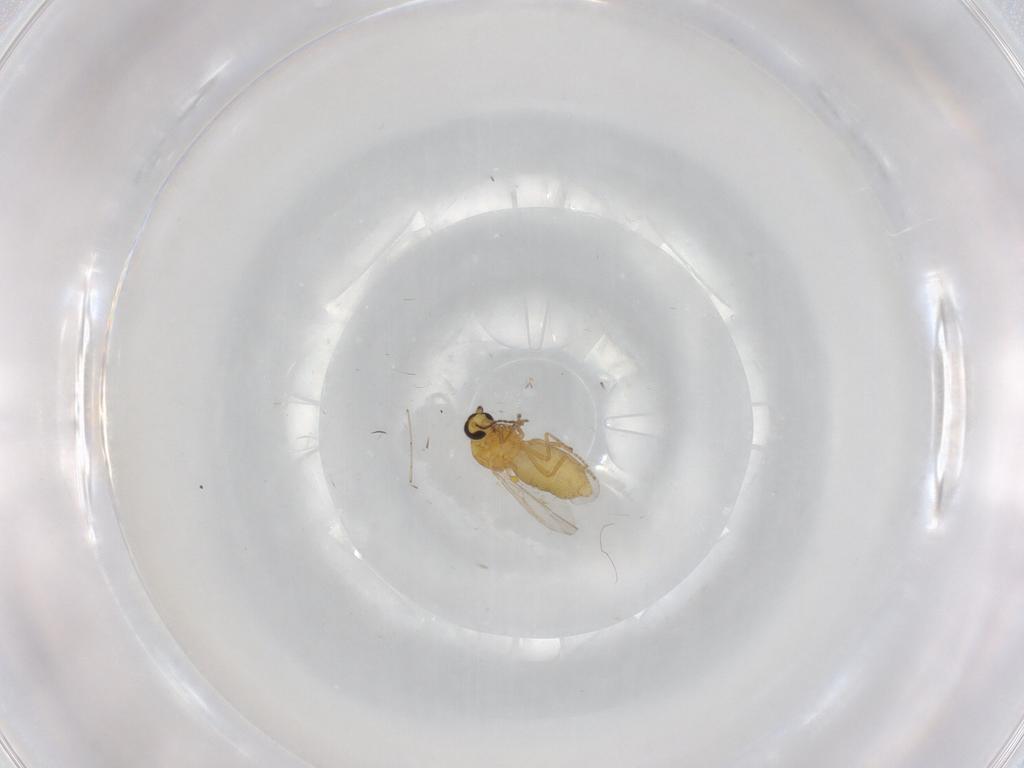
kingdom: Animalia
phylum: Arthropoda
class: Insecta
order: Diptera
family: Ceratopogonidae
